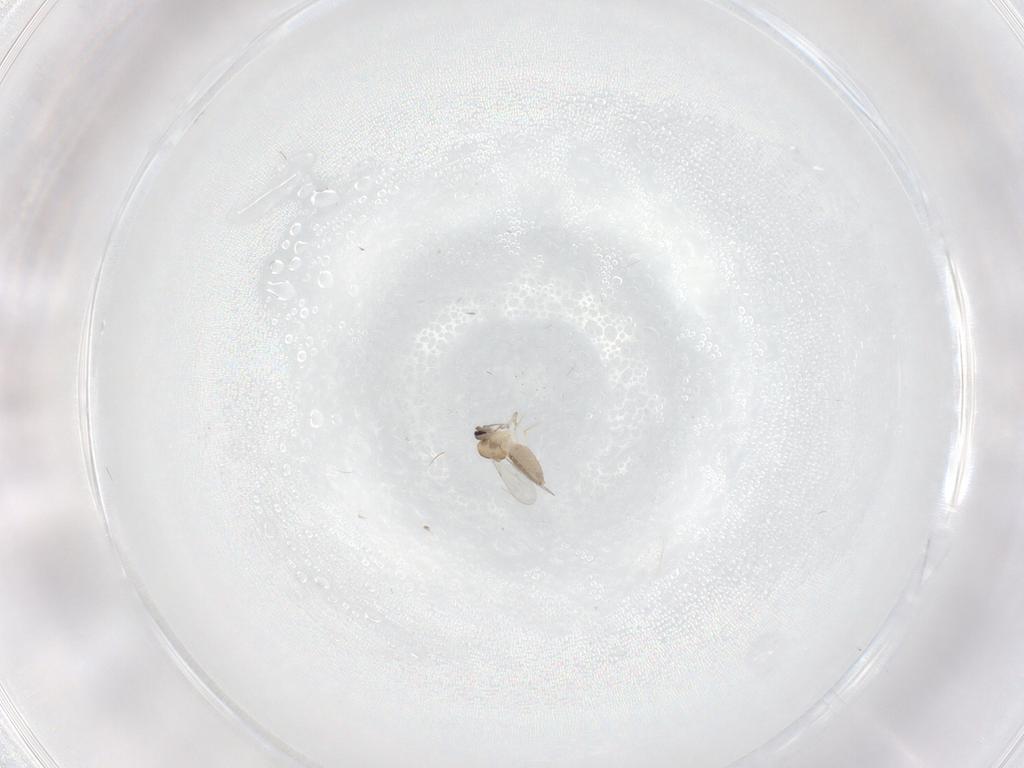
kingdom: Animalia
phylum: Arthropoda
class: Insecta
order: Diptera
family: Ceratopogonidae
